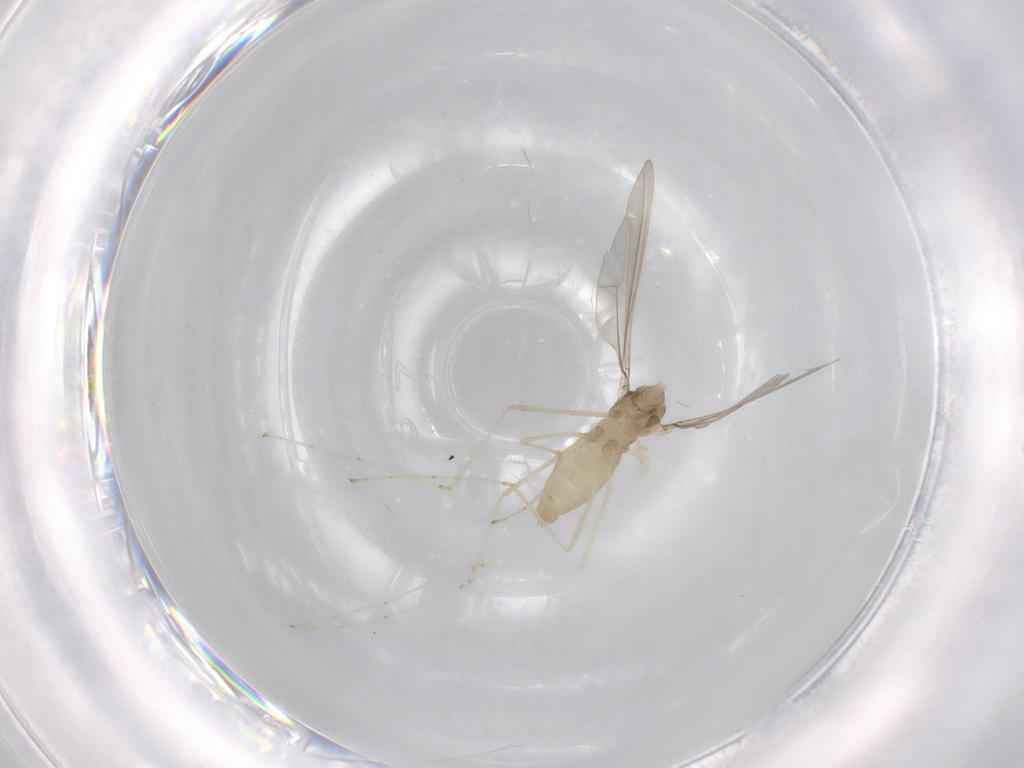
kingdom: Animalia
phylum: Arthropoda
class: Insecta
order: Diptera
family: Cecidomyiidae
